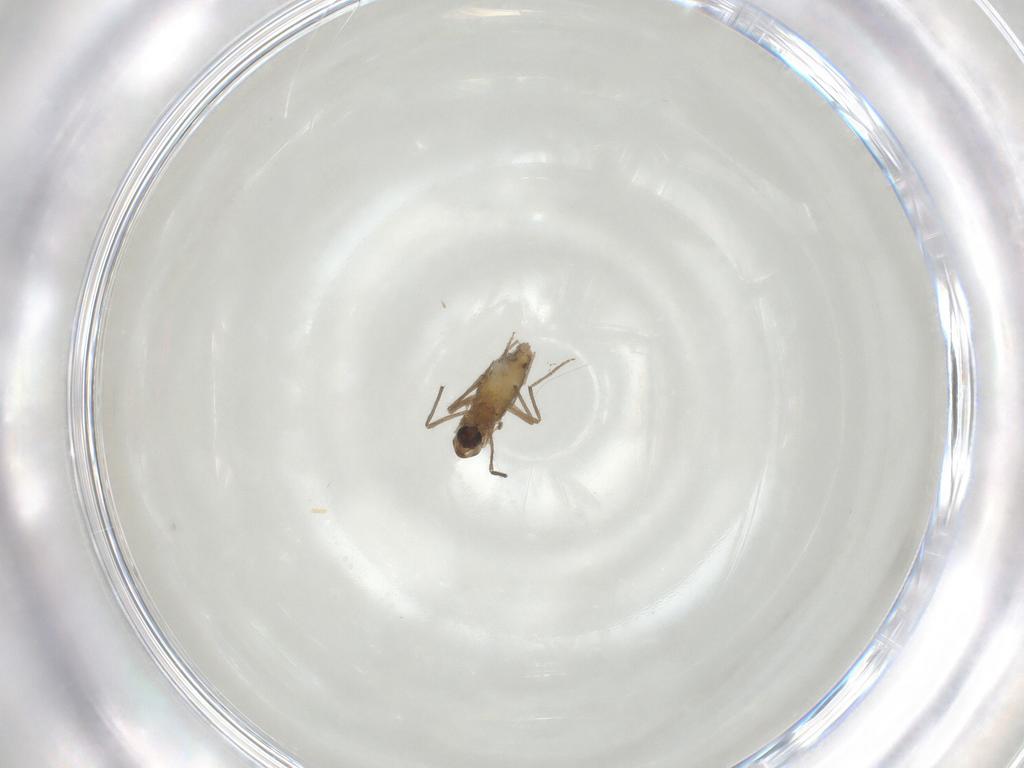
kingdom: Animalia
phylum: Arthropoda
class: Insecta
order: Diptera
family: Chironomidae
